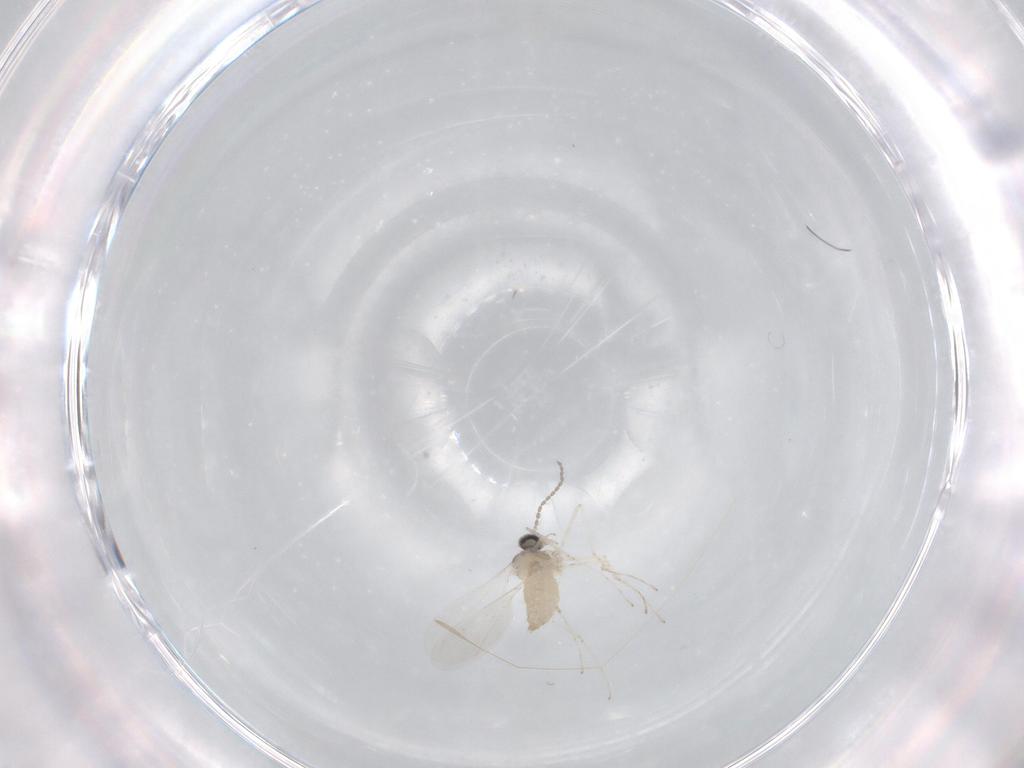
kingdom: Animalia
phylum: Arthropoda
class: Insecta
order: Diptera
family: Cecidomyiidae
